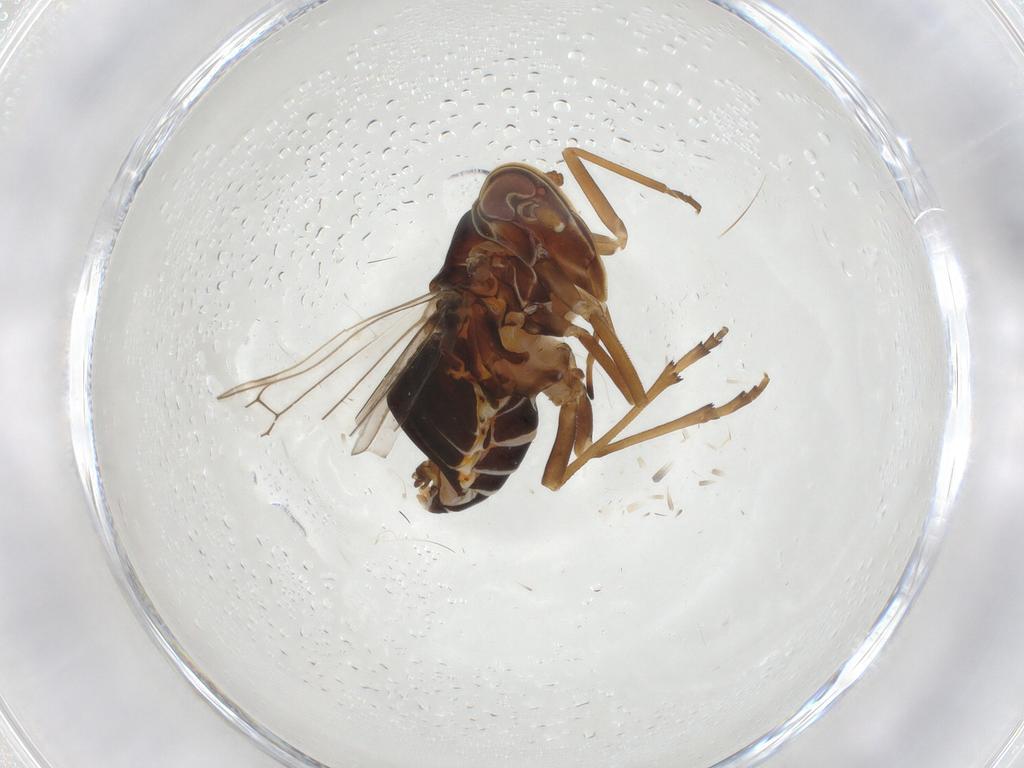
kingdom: Animalia
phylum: Arthropoda
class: Insecta
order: Hemiptera
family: Kinnaridae
